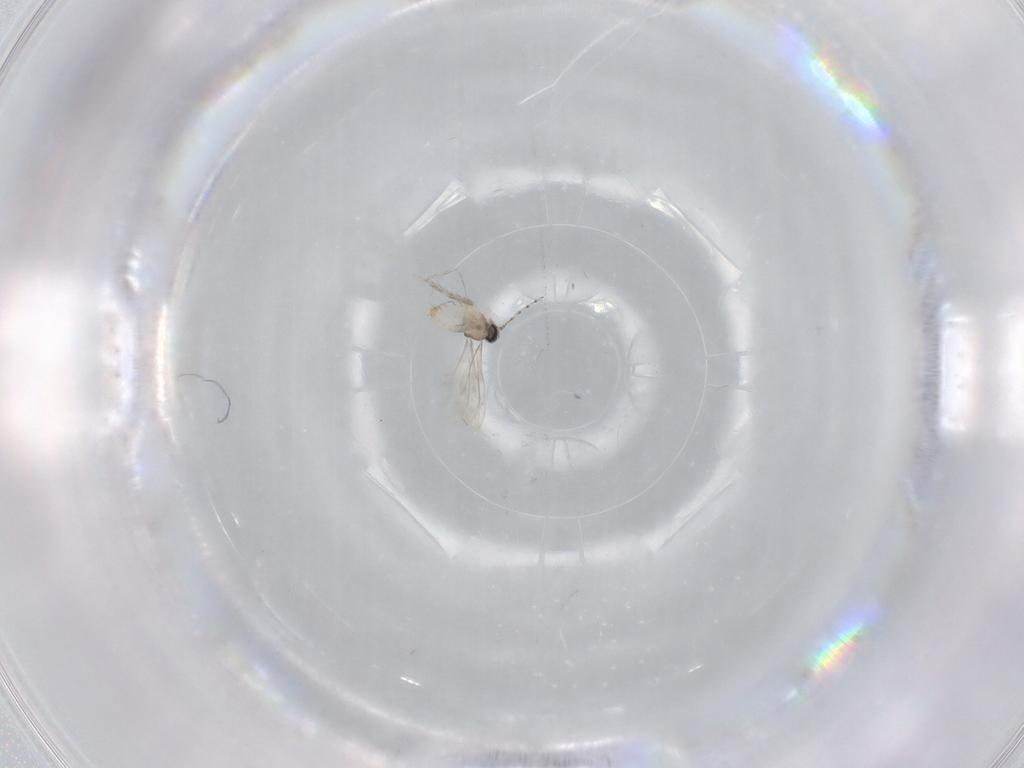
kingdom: Animalia
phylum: Arthropoda
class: Insecta
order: Diptera
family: Cecidomyiidae
